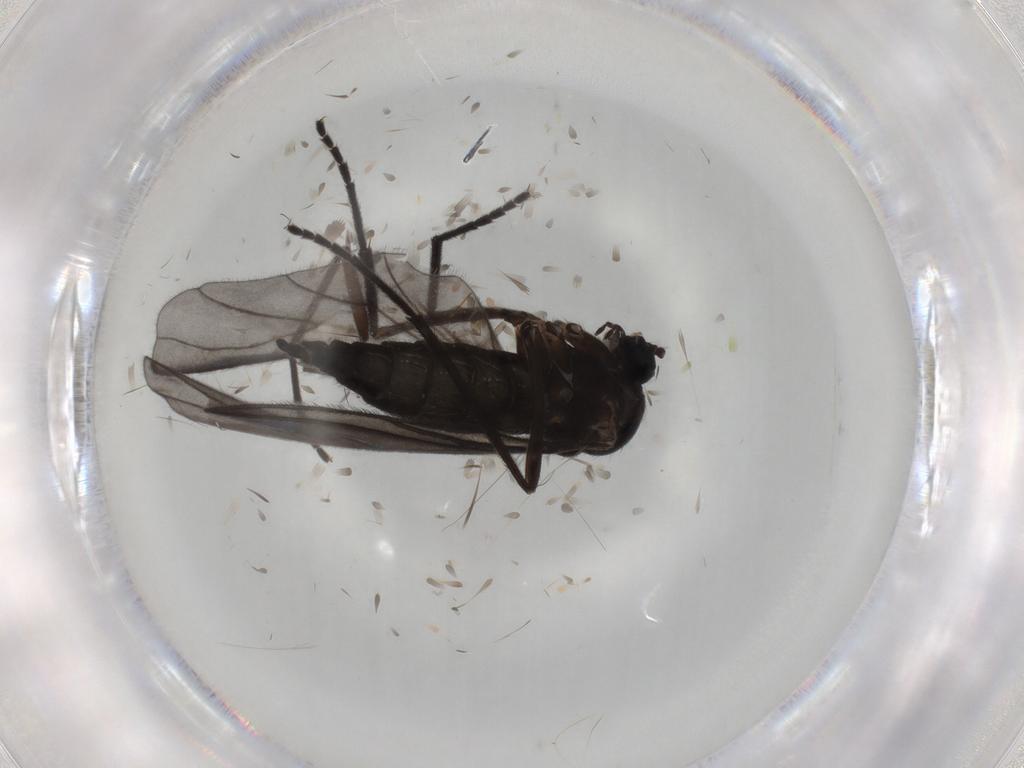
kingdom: Animalia
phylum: Arthropoda
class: Insecta
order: Diptera
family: Sciaridae
